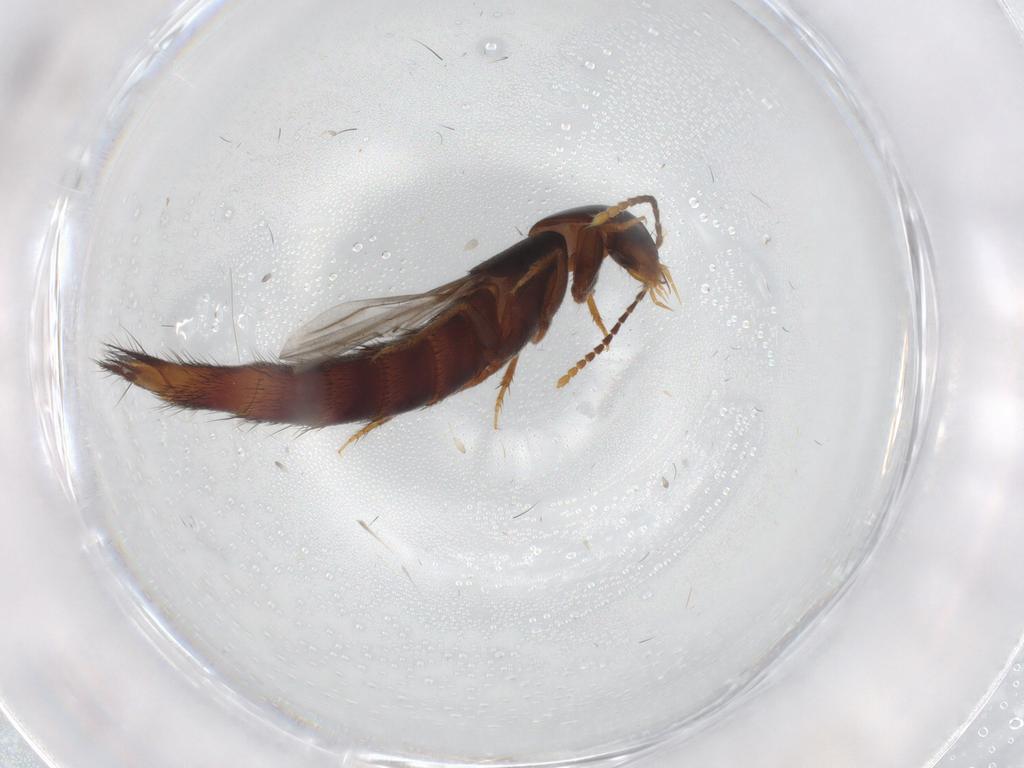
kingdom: Animalia
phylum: Arthropoda
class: Insecta
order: Coleoptera
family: Staphylinidae
